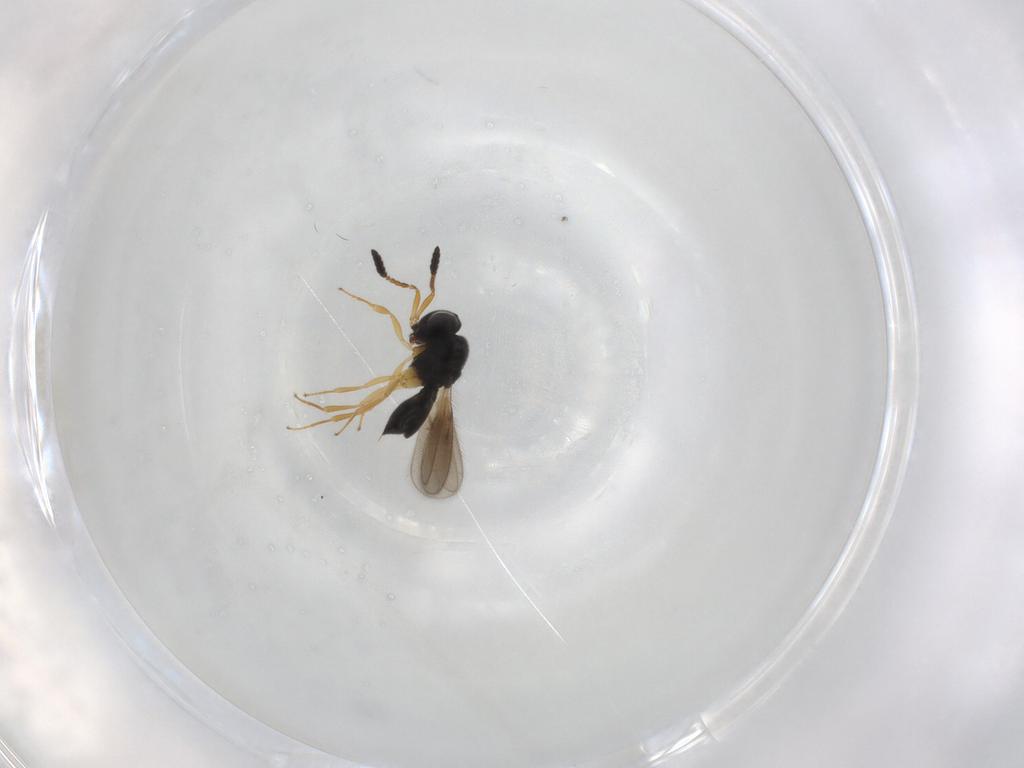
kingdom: Animalia
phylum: Arthropoda
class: Insecta
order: Hymenoptera
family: Scelionidae
